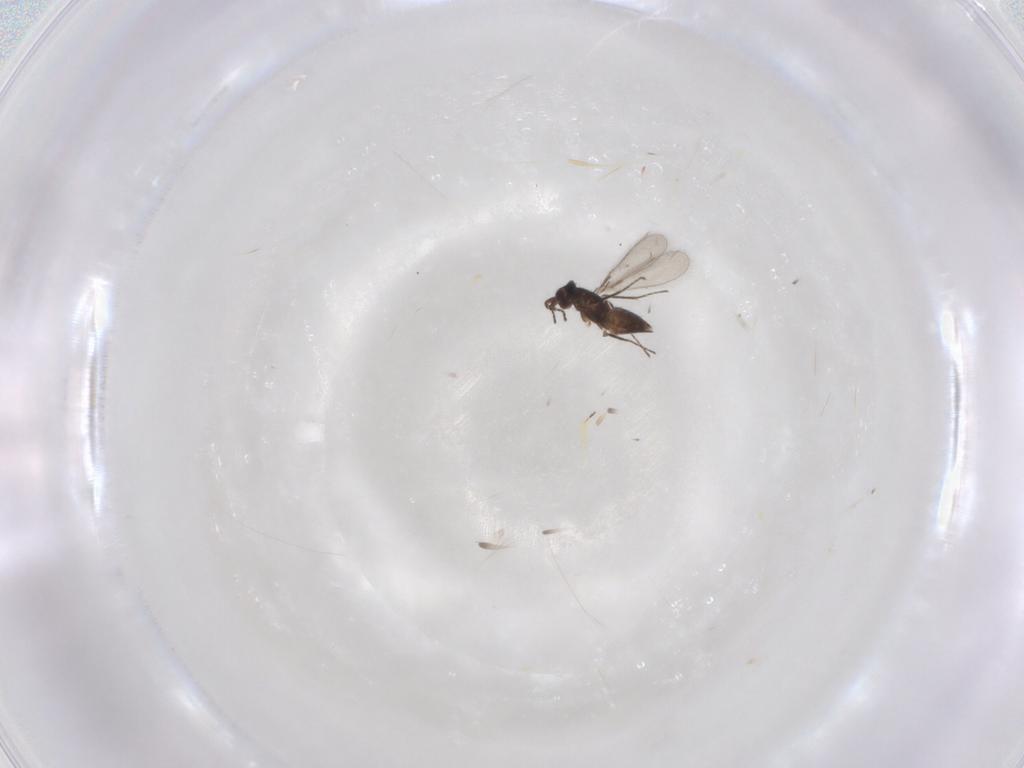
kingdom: Animalia
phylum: Arthropoda
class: Insecta
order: Hymenoptera
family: Mymaridae
